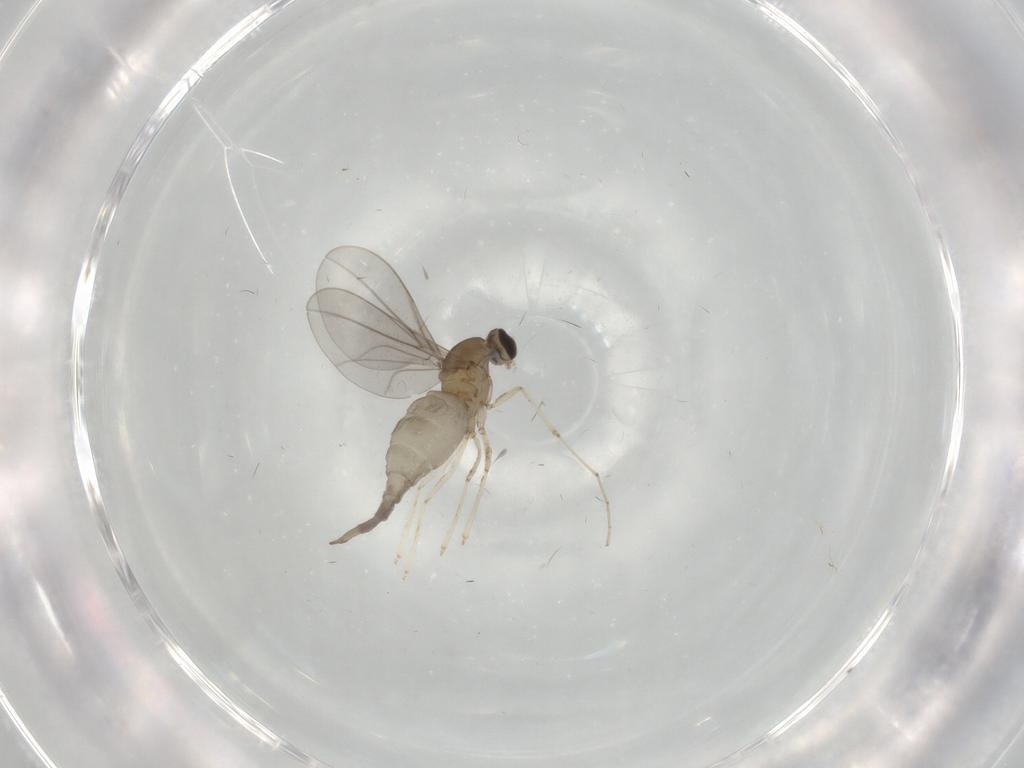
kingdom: Animalia
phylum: Arthropoda
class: Insecta
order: Diptera
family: Cecidomyiidae
